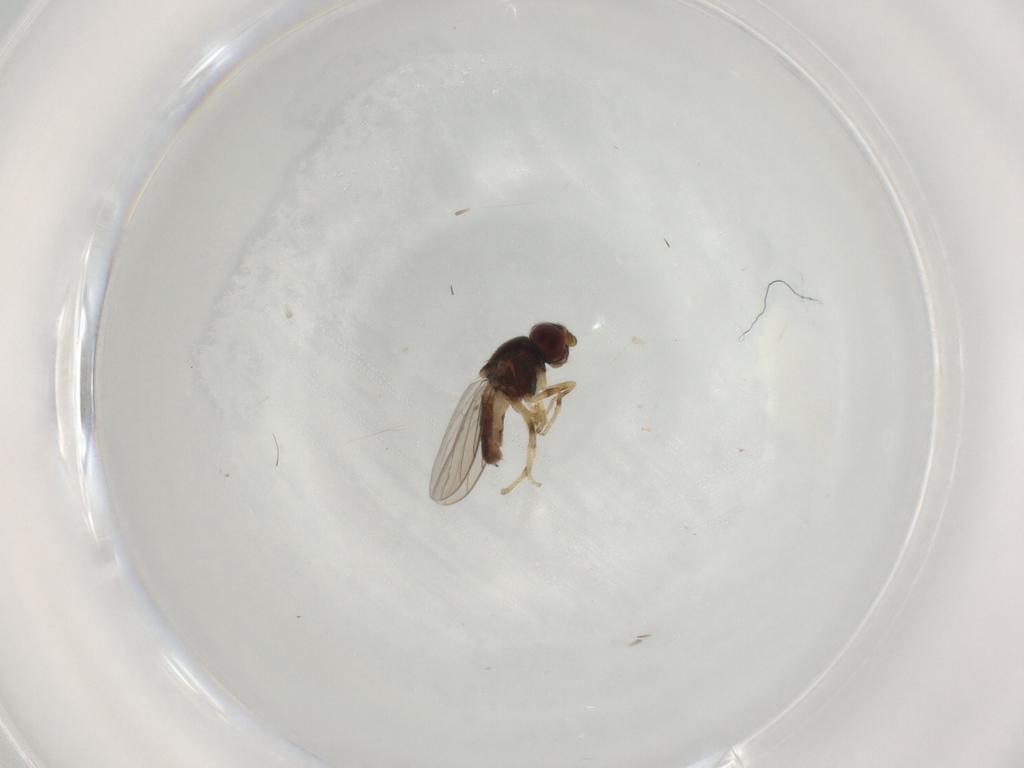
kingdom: Animalia
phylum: Arthropoda
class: Insecta
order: Diptera
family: Chloropidae
